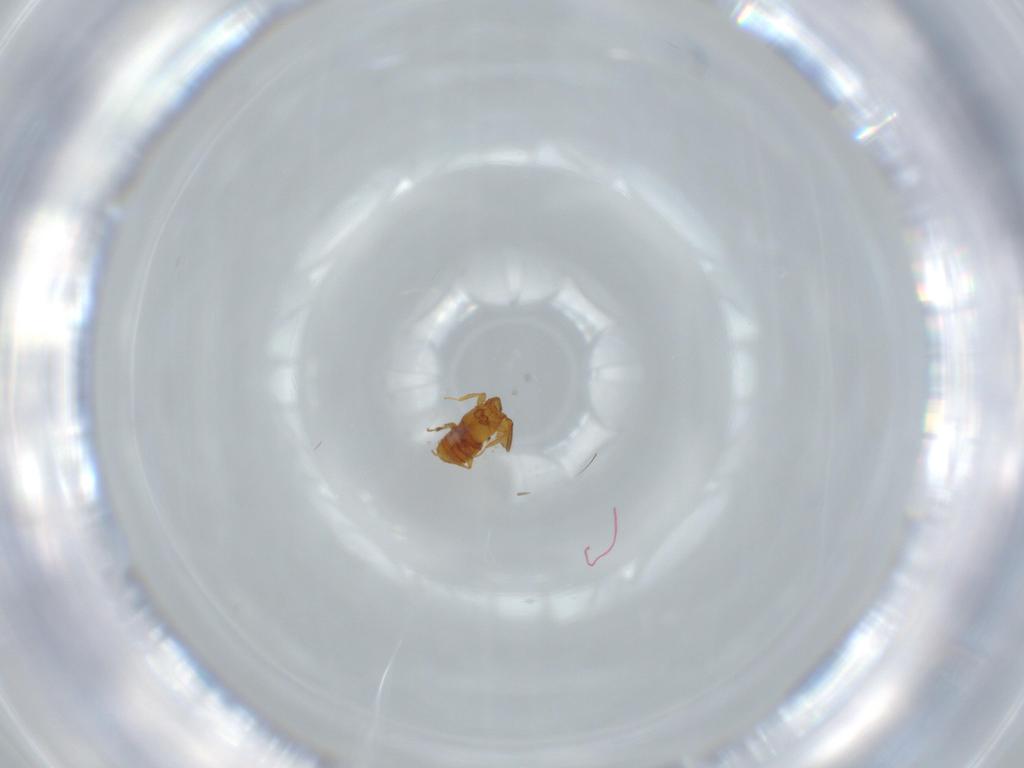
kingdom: Animalia
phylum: Arthropoda
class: Insecta
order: Coleoptera
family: Staphylinidae
